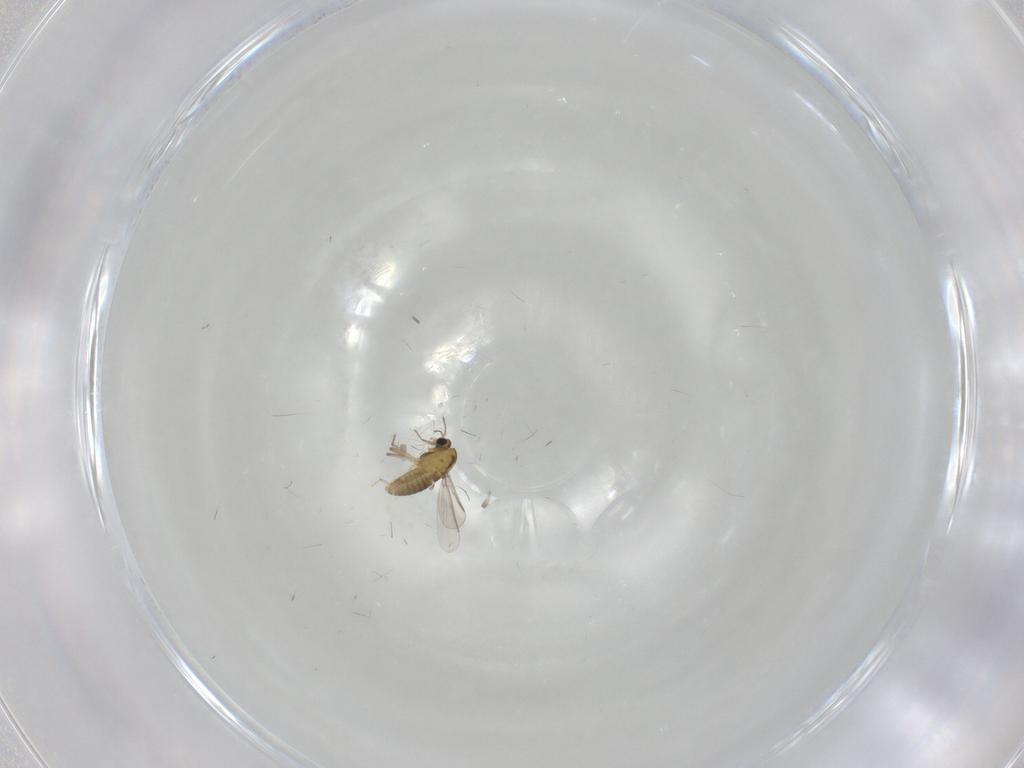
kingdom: Animalia
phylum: Arthropoda
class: Insecta
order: Diptera
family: Chironomidae
